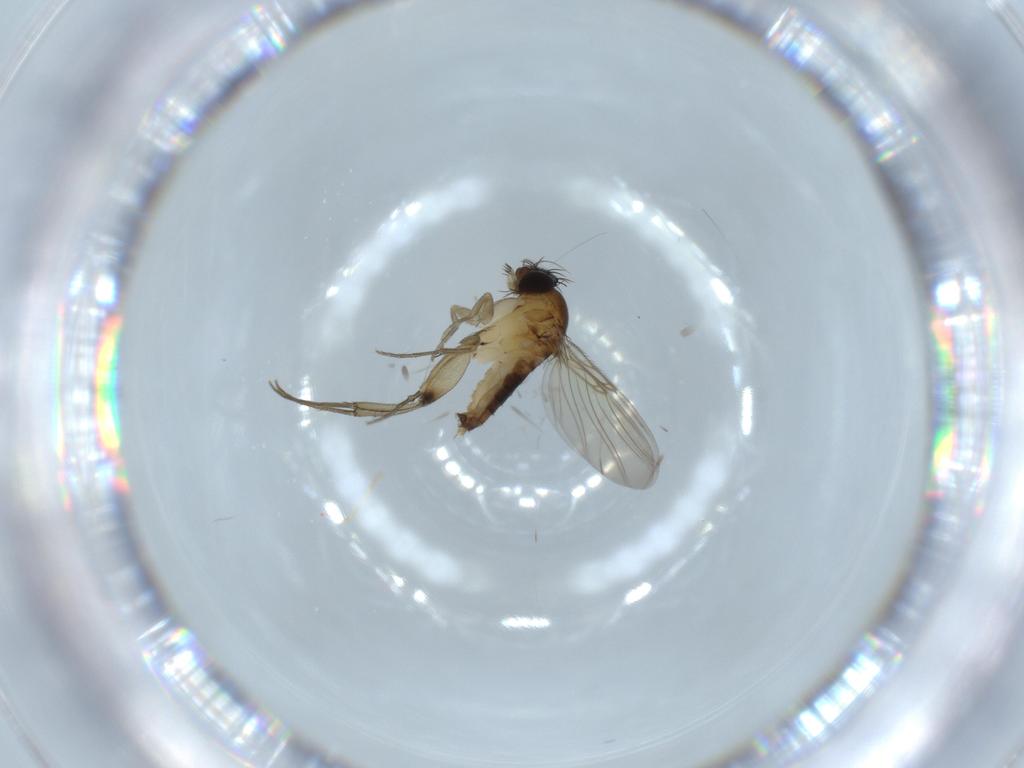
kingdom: Animalia
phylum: Arthropoda
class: Insecta
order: Diptera
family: Phoridae
